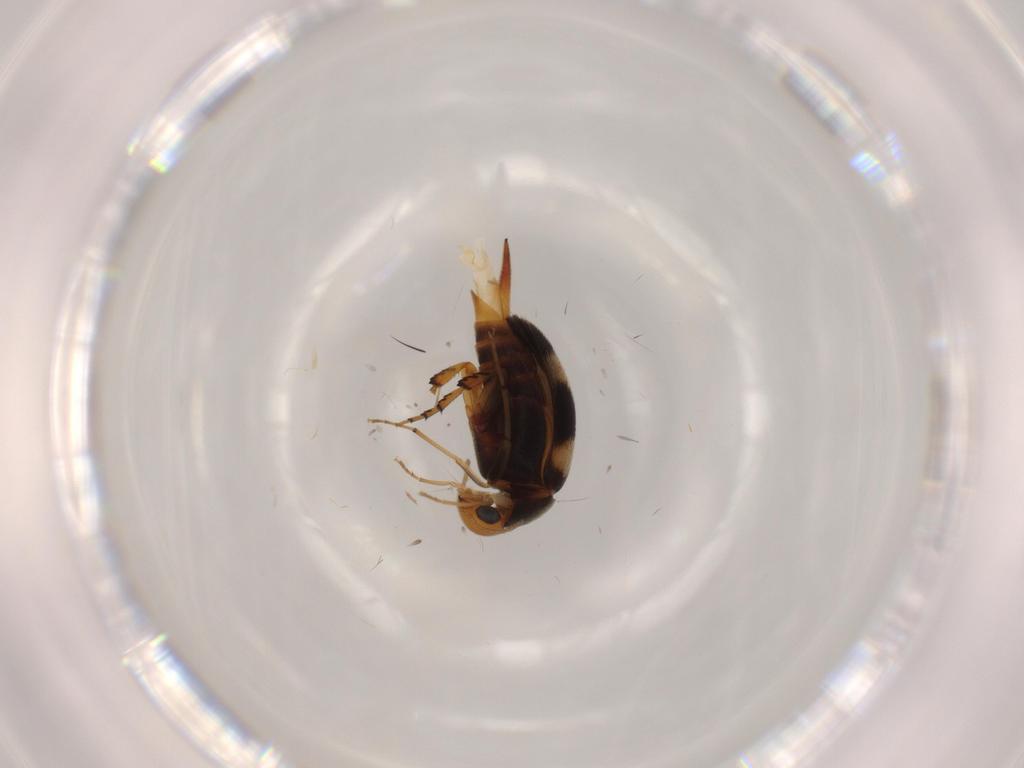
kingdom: Animalia
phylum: Arthropoda
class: Insecta
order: Coleoptera
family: Mordellidae
